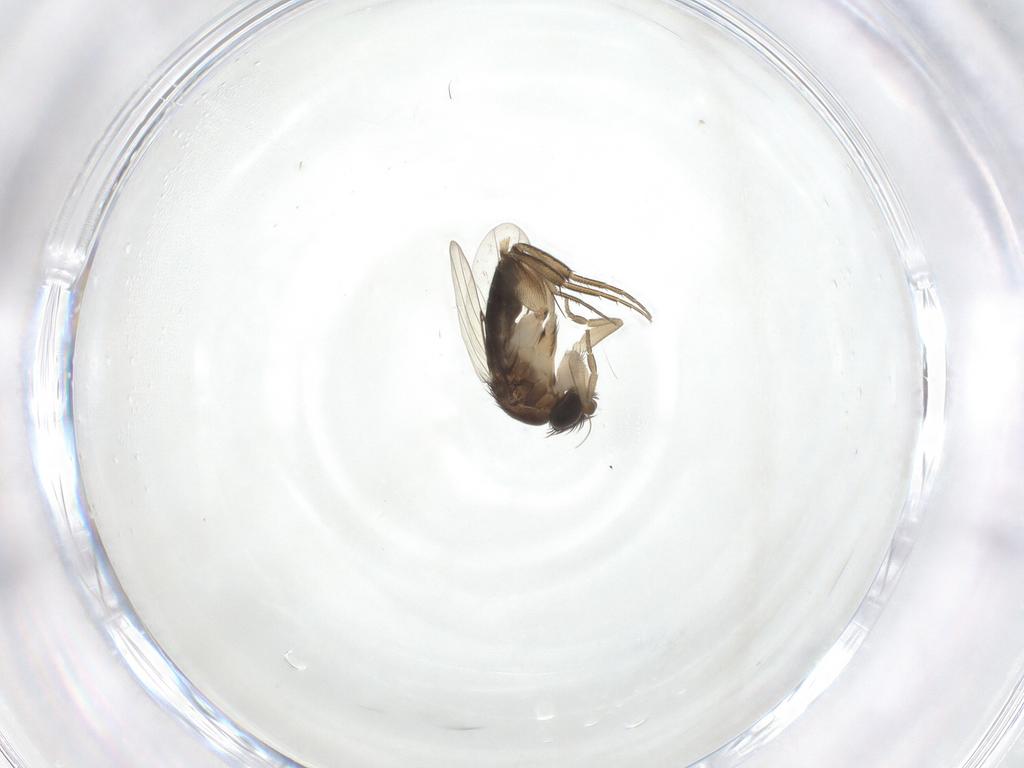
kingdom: Animalia
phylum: Arthropoda
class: Insecta
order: Diptera
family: Phoridae
